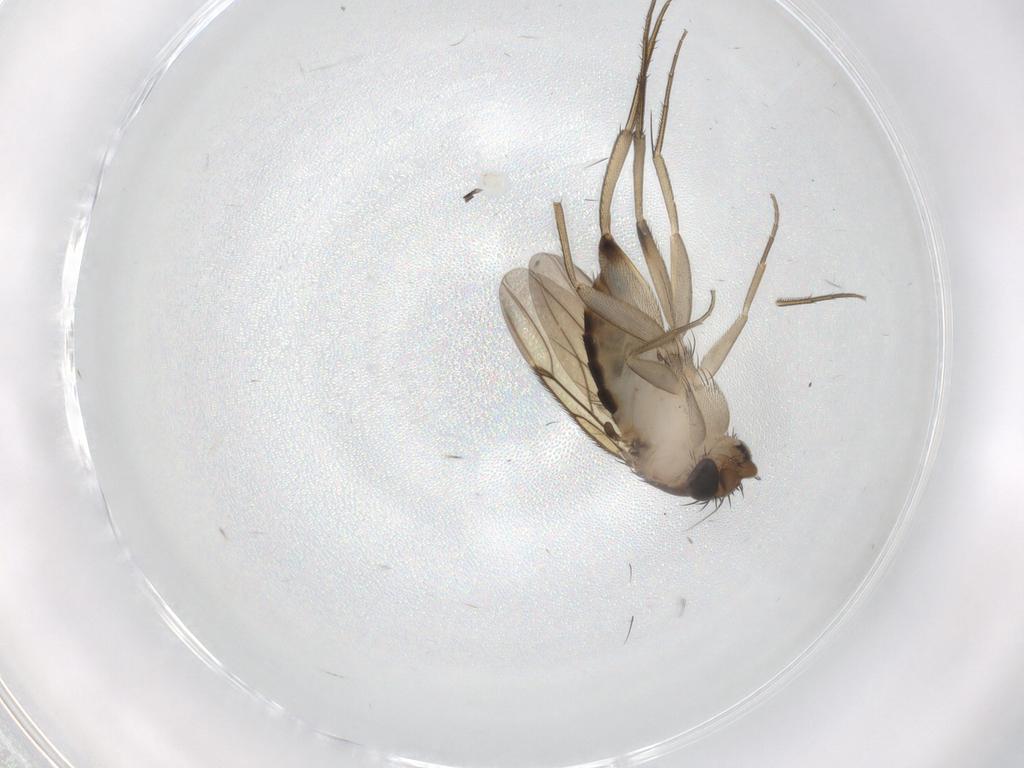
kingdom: Animalia
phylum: Arthropoda
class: Insecta
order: Diptera
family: Phoridae
